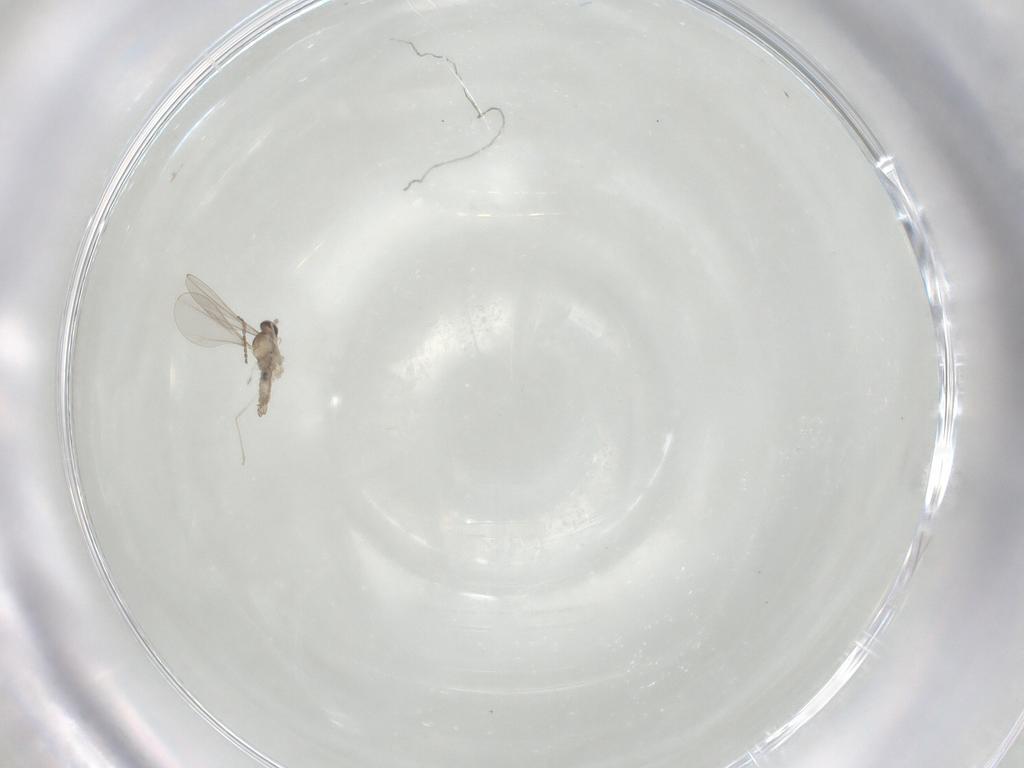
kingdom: Animalia
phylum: Arthropoda
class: Insecta
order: Diptera
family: Cecidomyiidae
